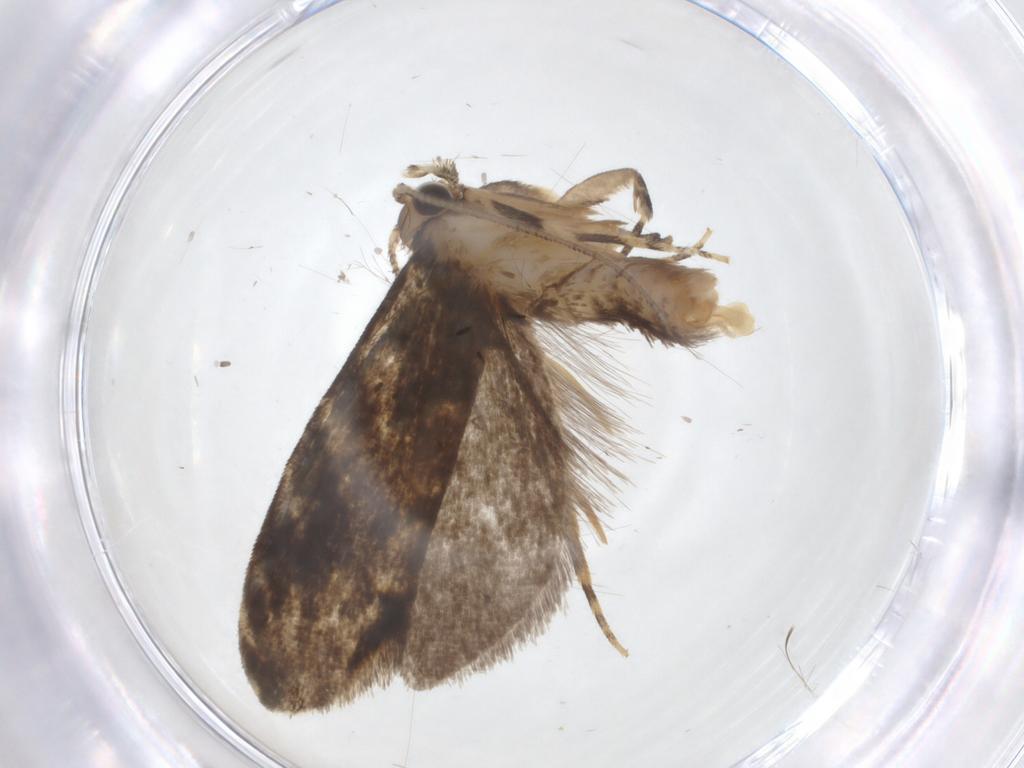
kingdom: Animalia
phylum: Arthropoda
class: Insecta
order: Lepidoptera
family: Tineidae
